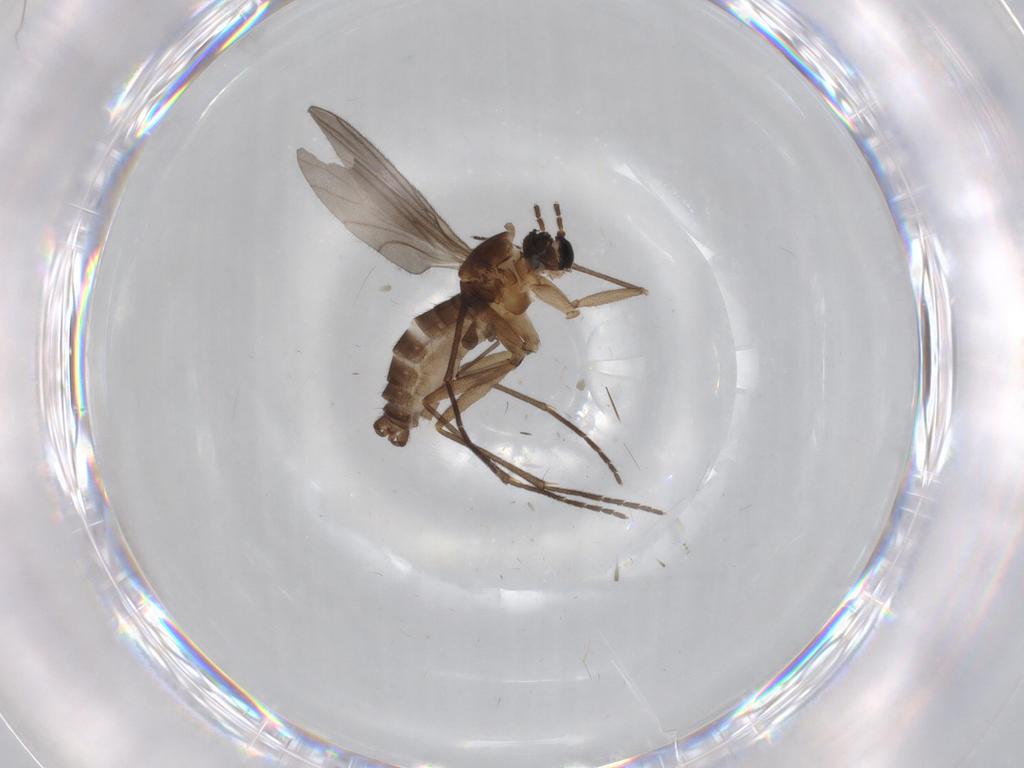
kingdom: Animalia
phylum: Arthropoda
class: Insecta
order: Diptera
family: Sciaridae
